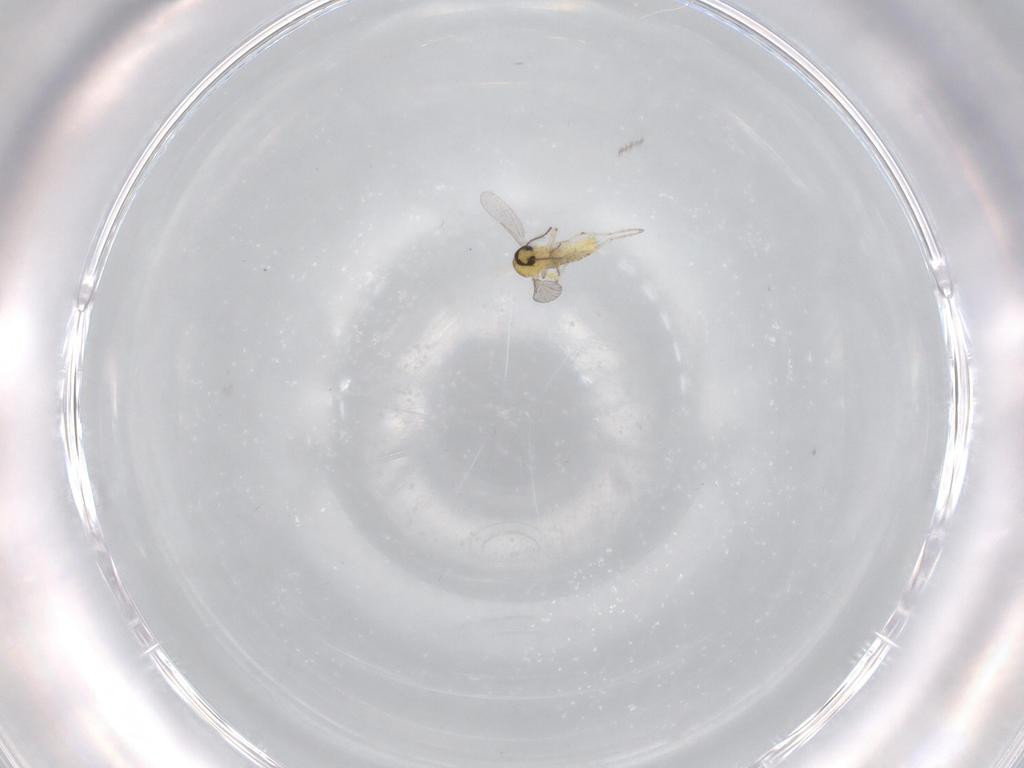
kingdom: Animalia
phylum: Arthropoda
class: Insecta
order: Diptera
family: Ceratopogonidae
